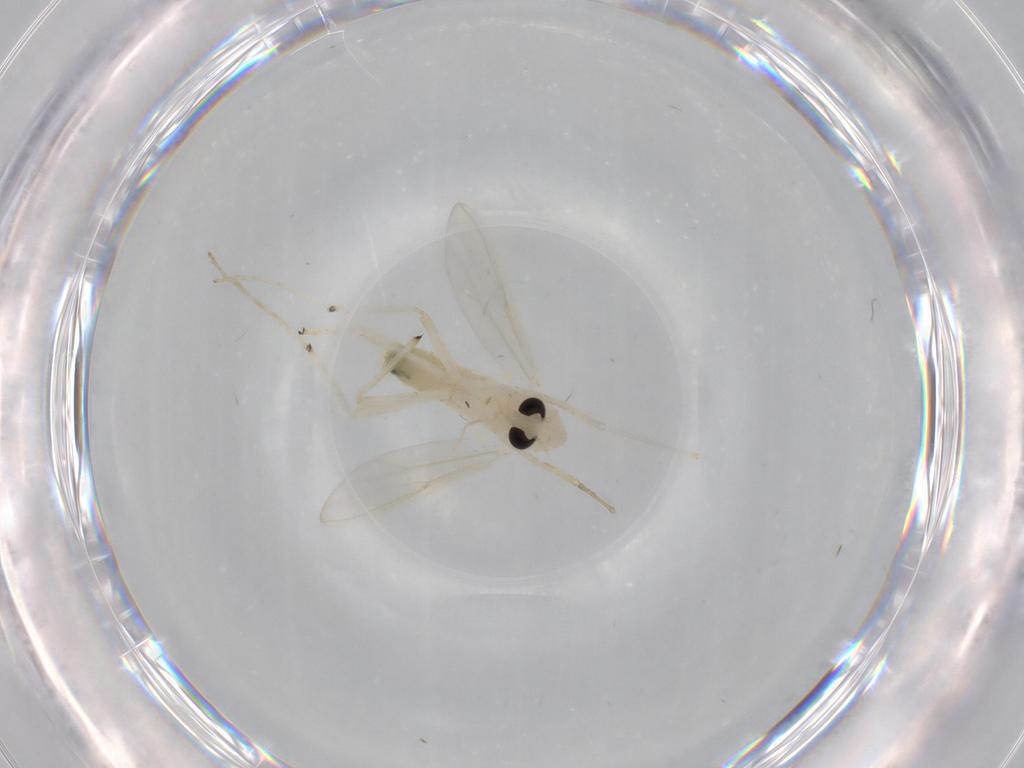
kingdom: Animalia
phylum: Arthropoda
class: Insecta
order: Diptera
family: Chironomidae
